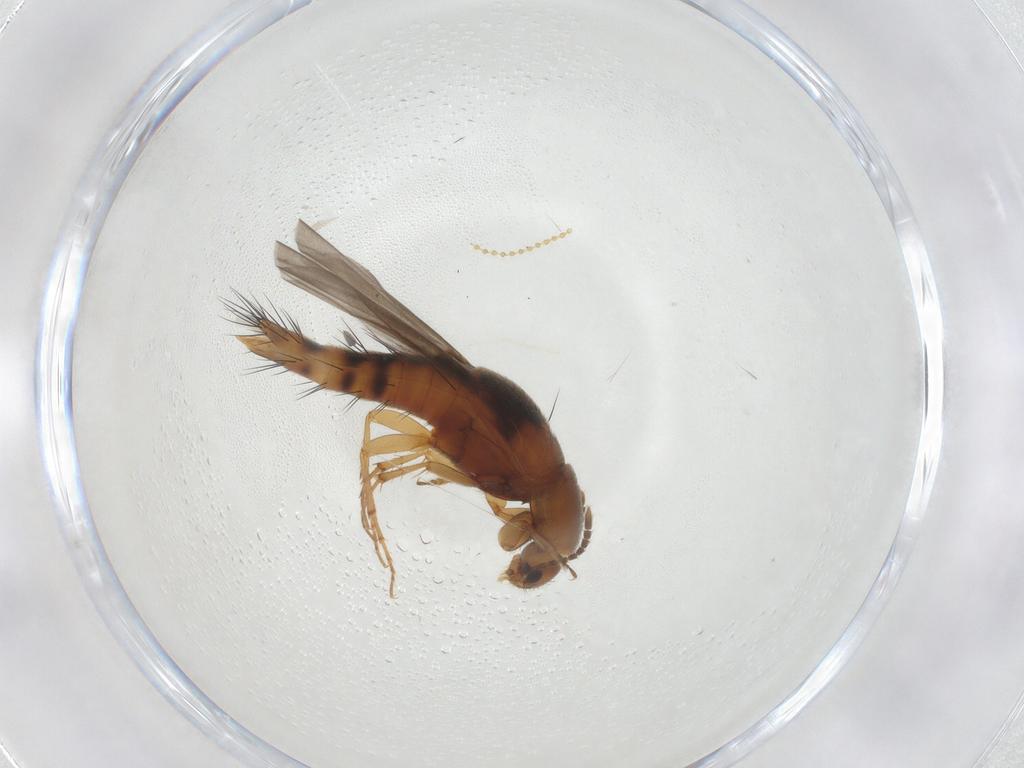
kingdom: Animalia
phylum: Arthropoda
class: Insecta
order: Coleoptera
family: Staphylinidae
